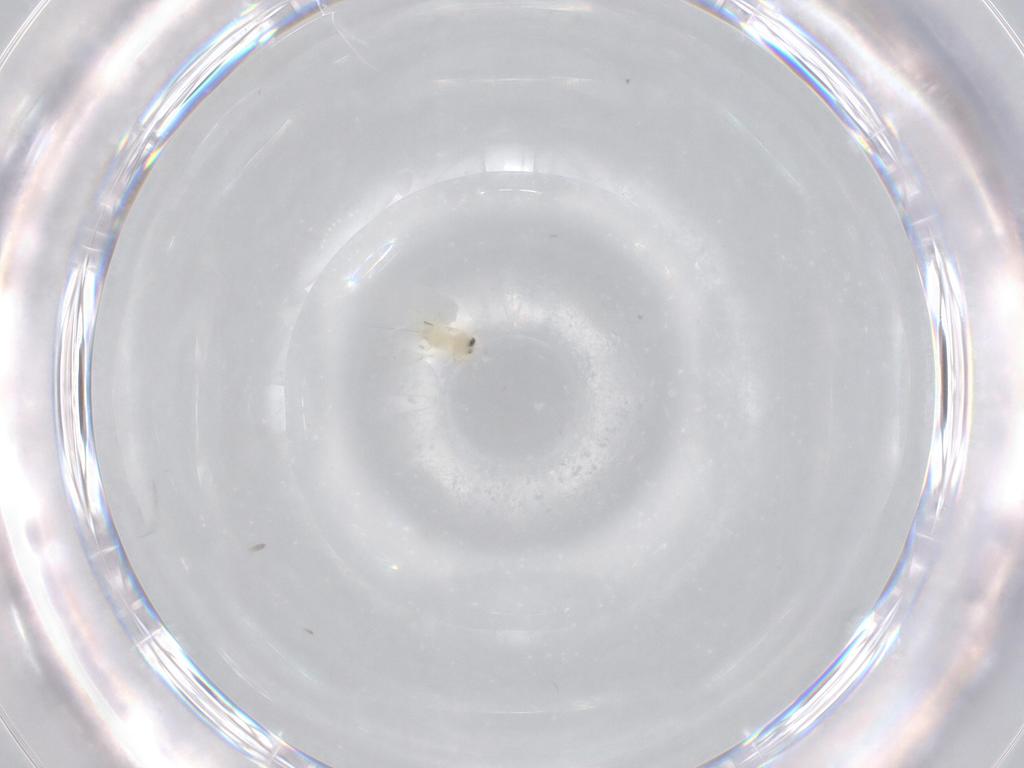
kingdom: Animalia
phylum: Arthropoda
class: Insecta
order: Hemiptera
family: Aleyrodidae
